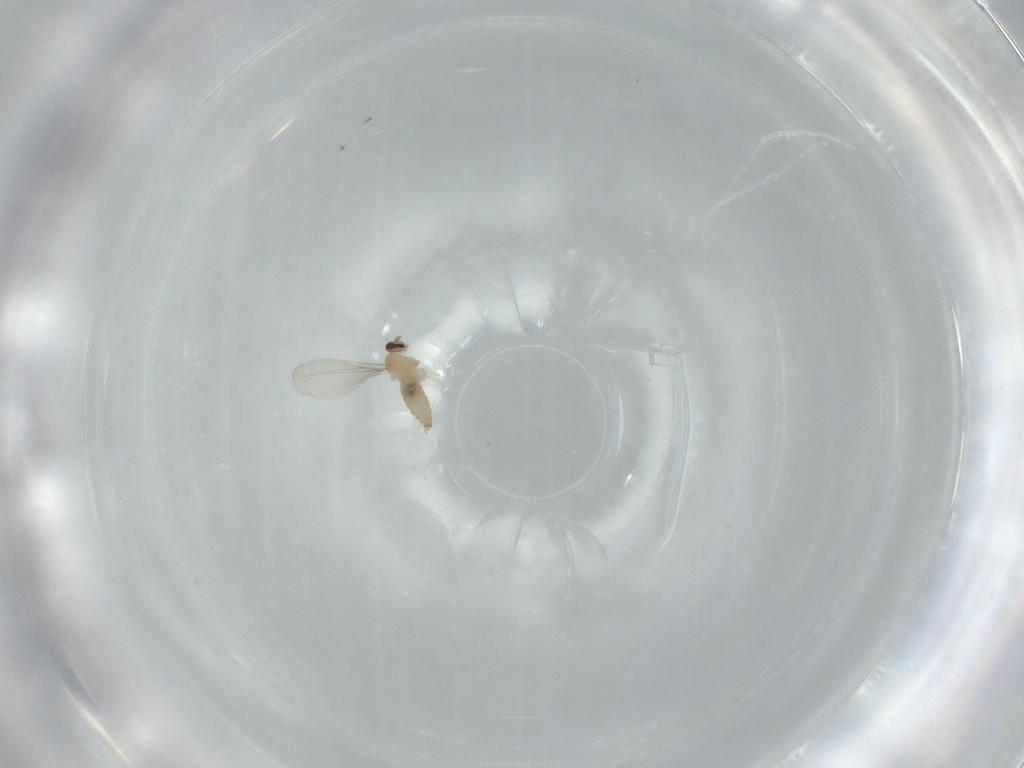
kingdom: Animalia
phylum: Arthropoda
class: Insecta
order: Diptera
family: Cecidomyiidae
